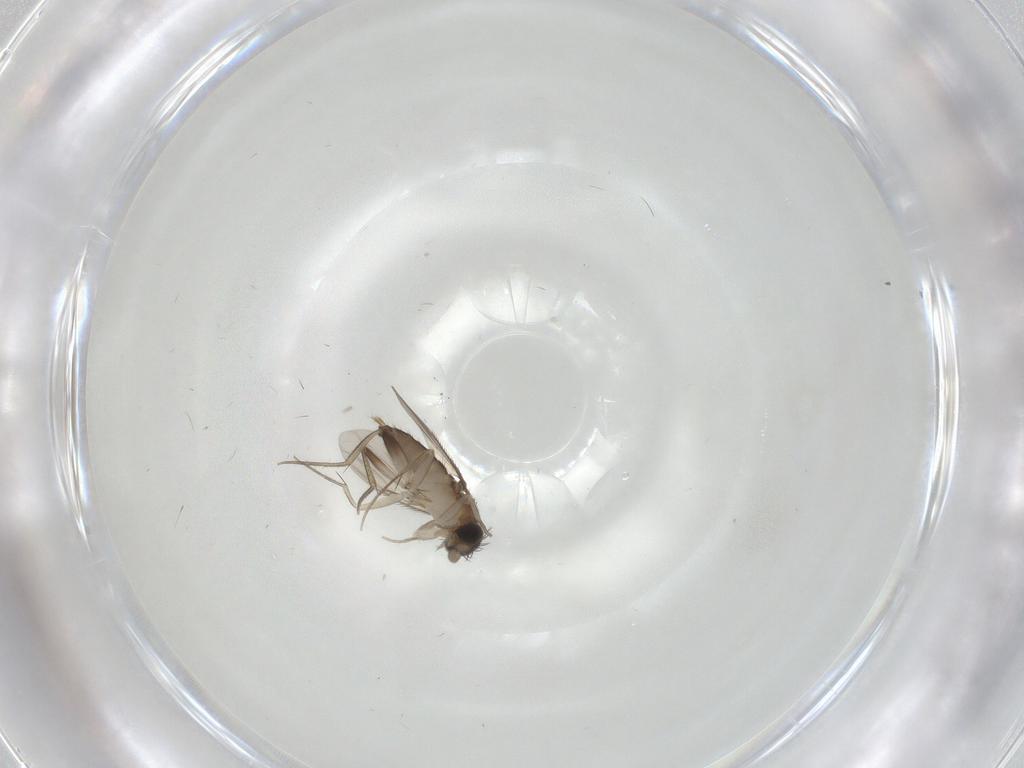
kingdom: Animalia
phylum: Arthropoda
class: Insecta
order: Diptera
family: Phoridae
